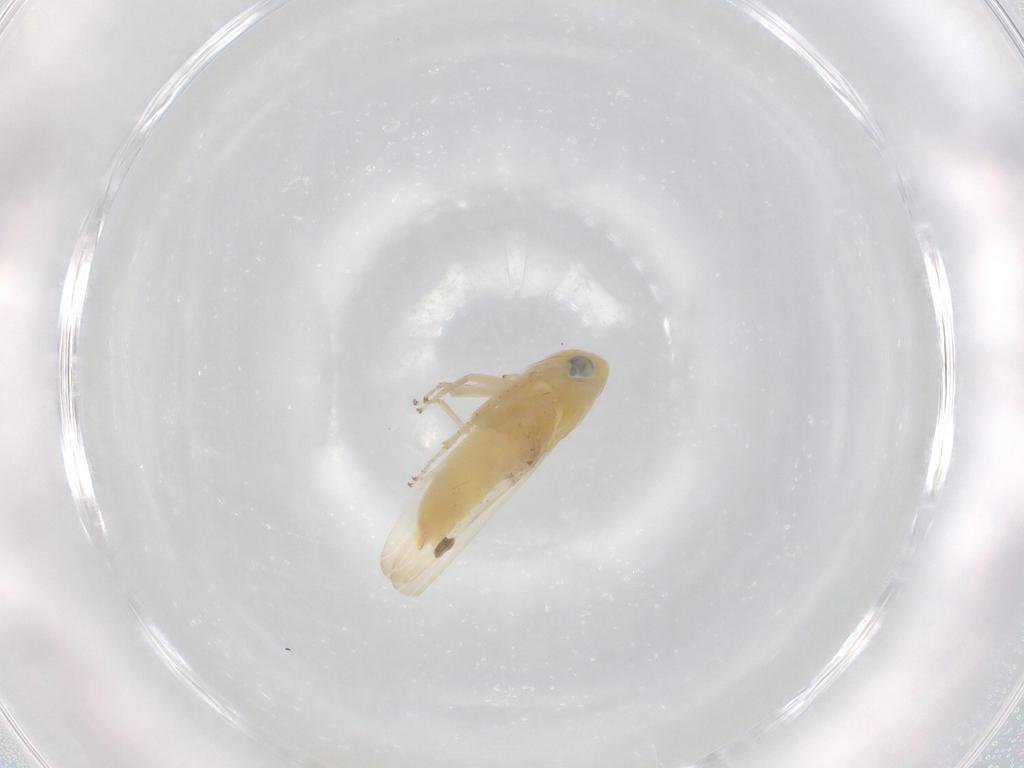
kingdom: Animalia
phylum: Arthropoda
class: Insecta
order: Hemiptera
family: Cicadellidae
